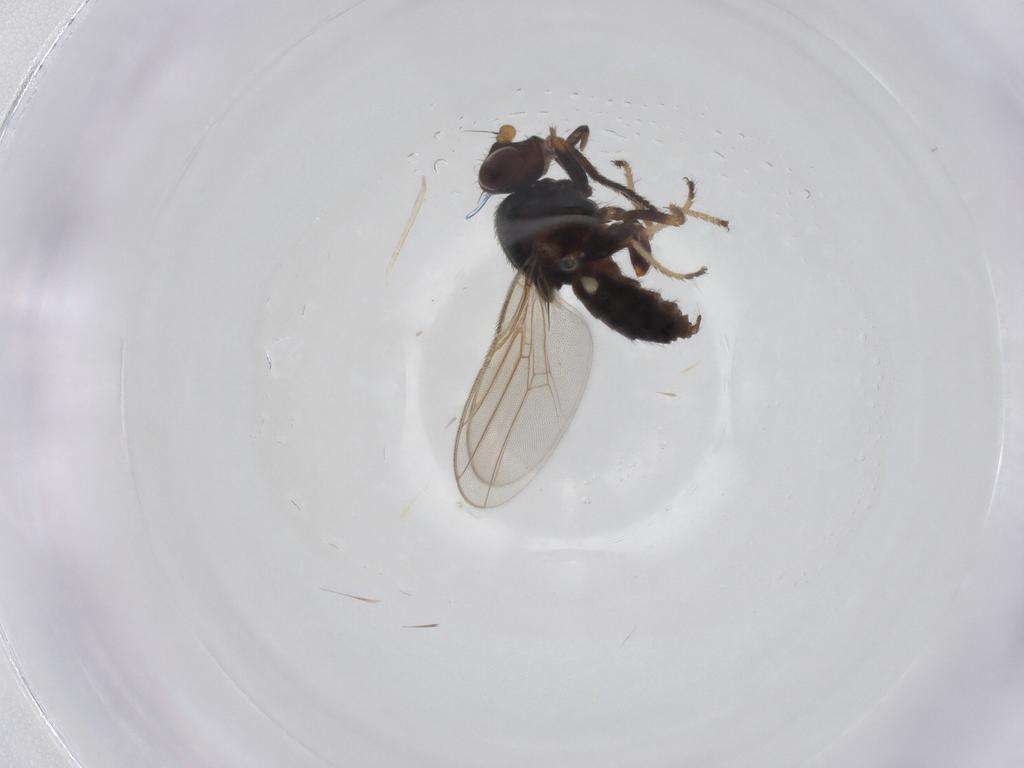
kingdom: Animalia
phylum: Arthropoda
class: Insecta
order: Diptera
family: Chloropidae
